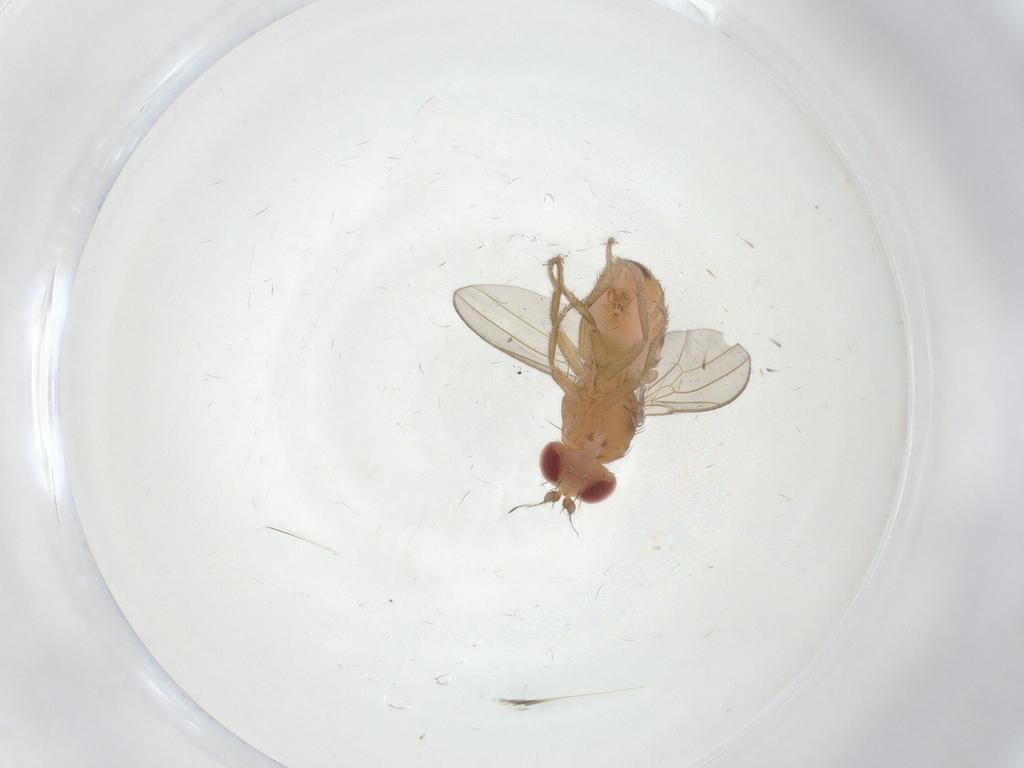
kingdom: Animalia
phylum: Arthropoda
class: Insecta
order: Diptera
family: Drosophilidae
